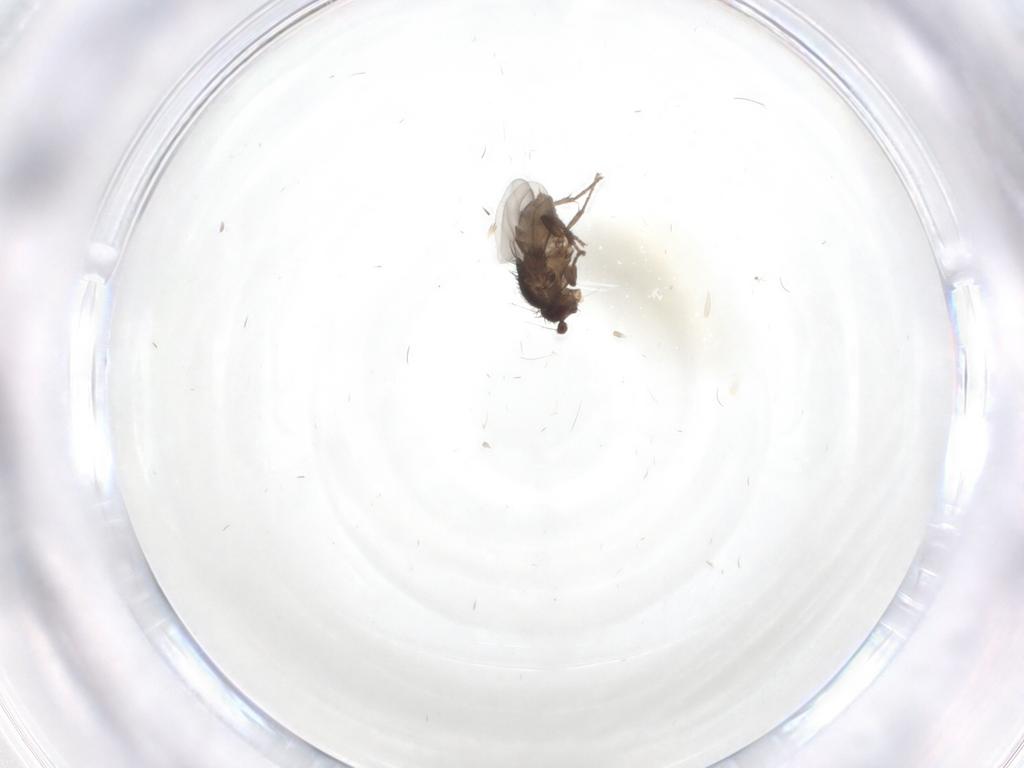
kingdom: Animalia
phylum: Arthropoda
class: Insecta
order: Diptera
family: Sphaeroceridae
